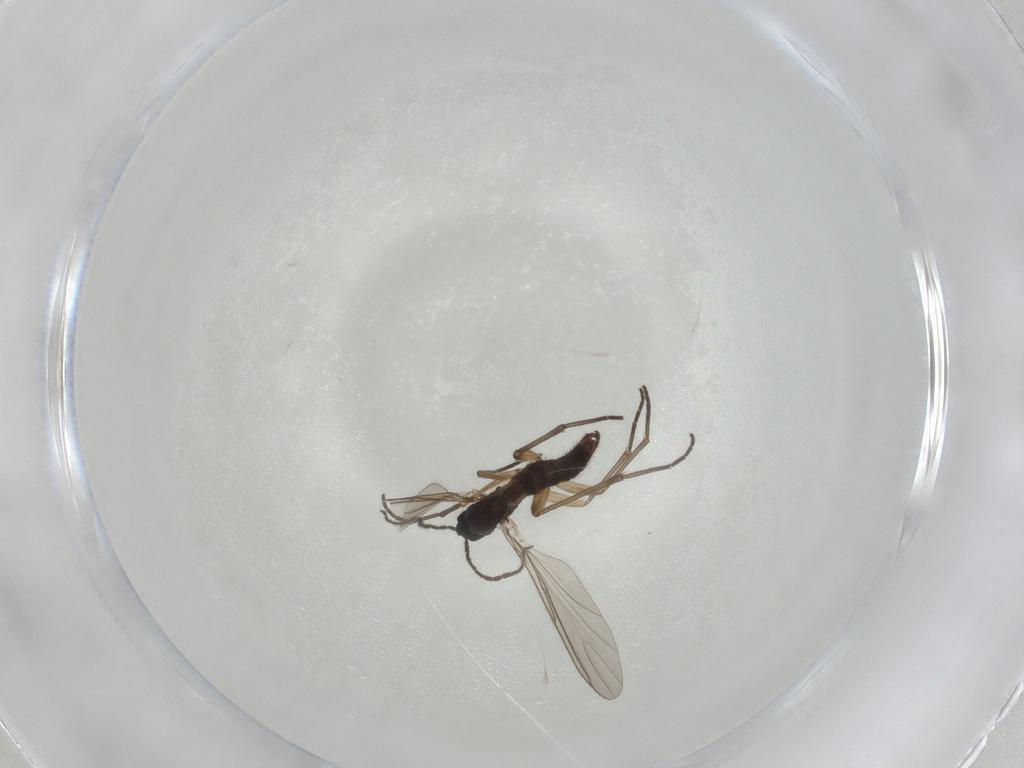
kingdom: Animalia
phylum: Arthropoda
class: Insecta
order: Diptera
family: Sciaridae
